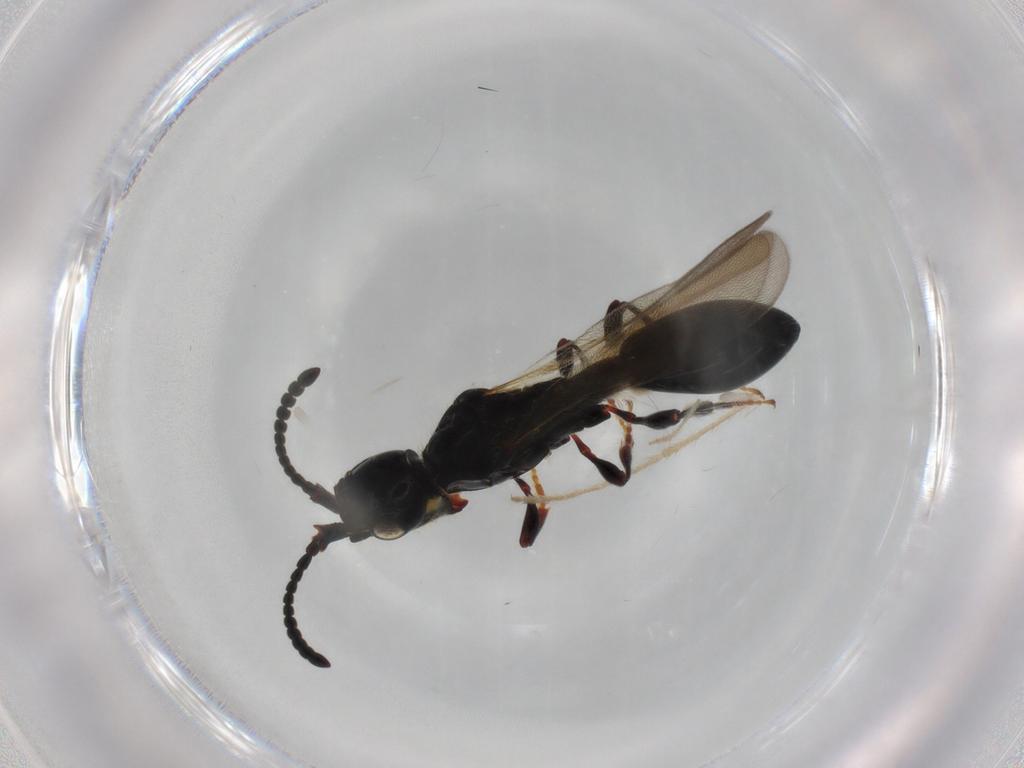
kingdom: Animalia
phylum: Arthropoda
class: Insecta
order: Hymenoptera
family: Diapriidae
